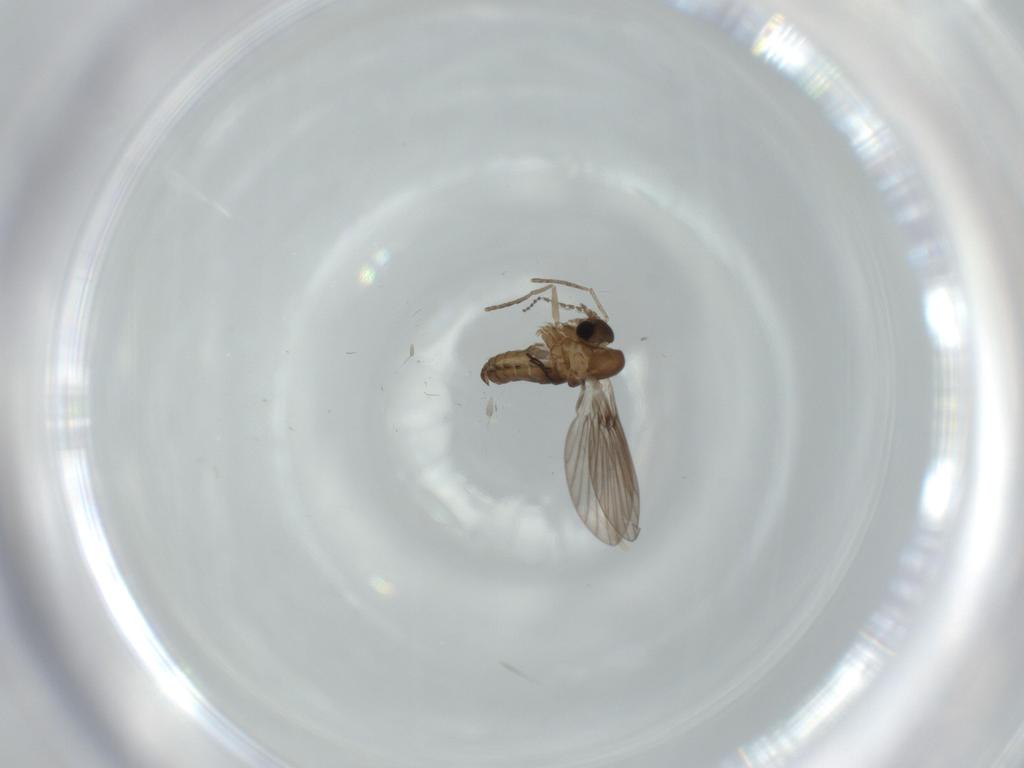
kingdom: Animalia
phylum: Arthropoda
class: Insecta
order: Diptera
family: Psychodidae
